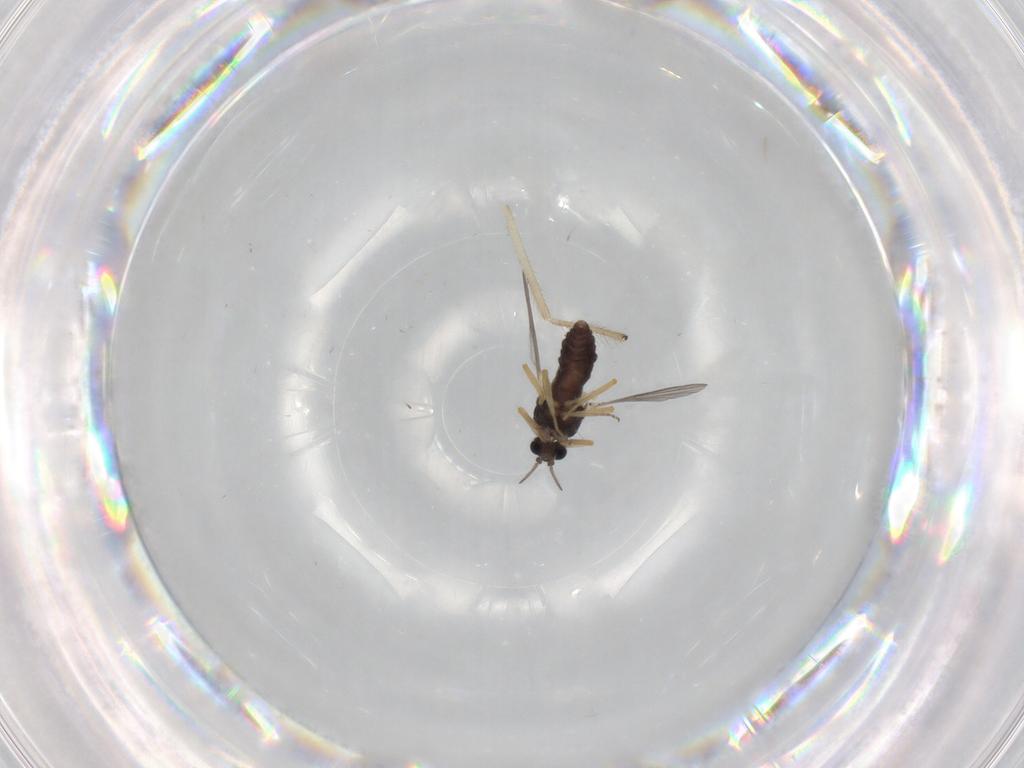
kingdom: Animalia
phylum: Arthropoda
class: Insecta
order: Diptera
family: Ceratopogonidae
